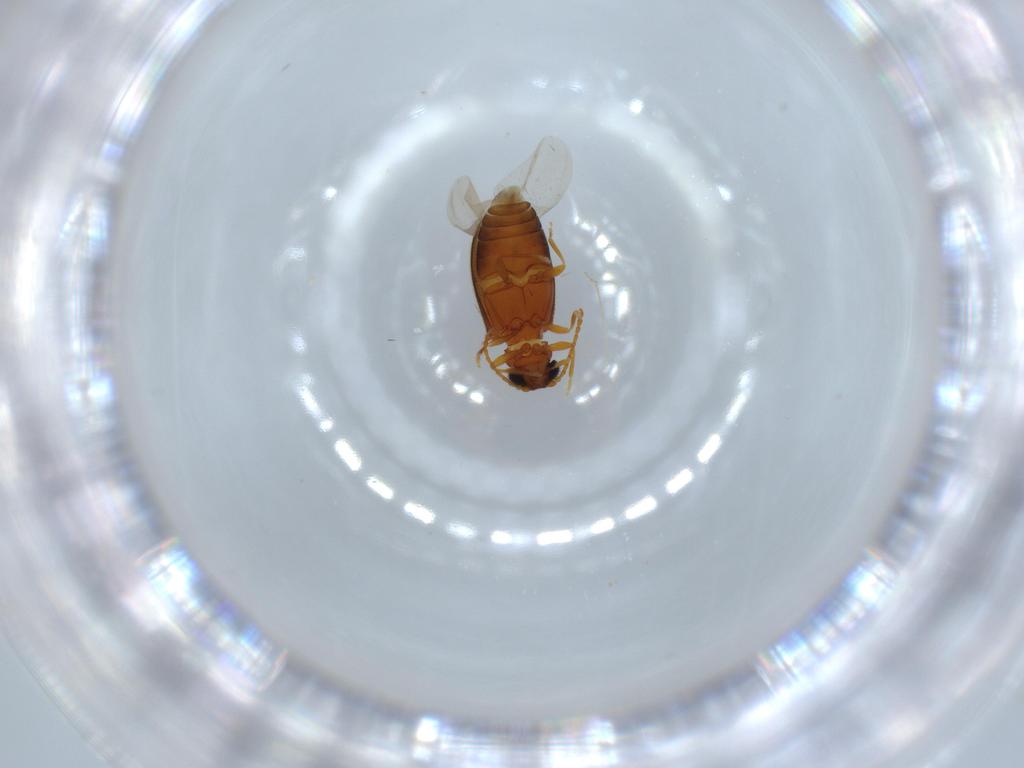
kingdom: Animalia
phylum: Arthropoda
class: Insecta
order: Coleoptera
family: Aderidae
